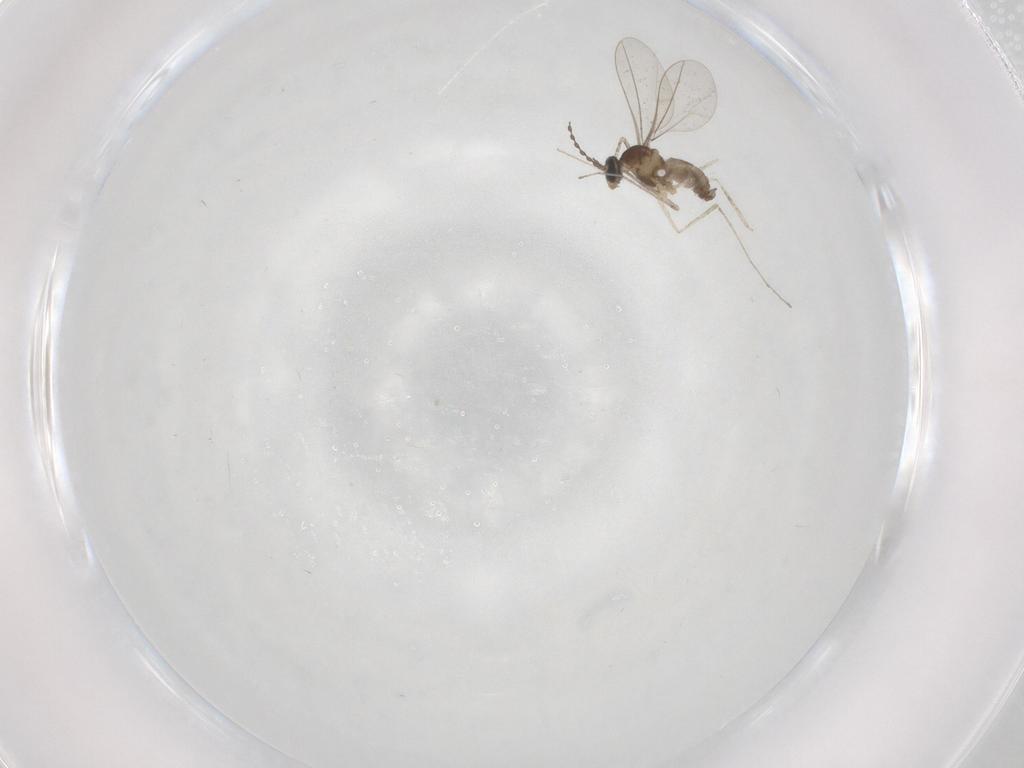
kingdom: Animalia
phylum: Arthropoda
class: Insecta
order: Diptera
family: Cecidomyiidae
